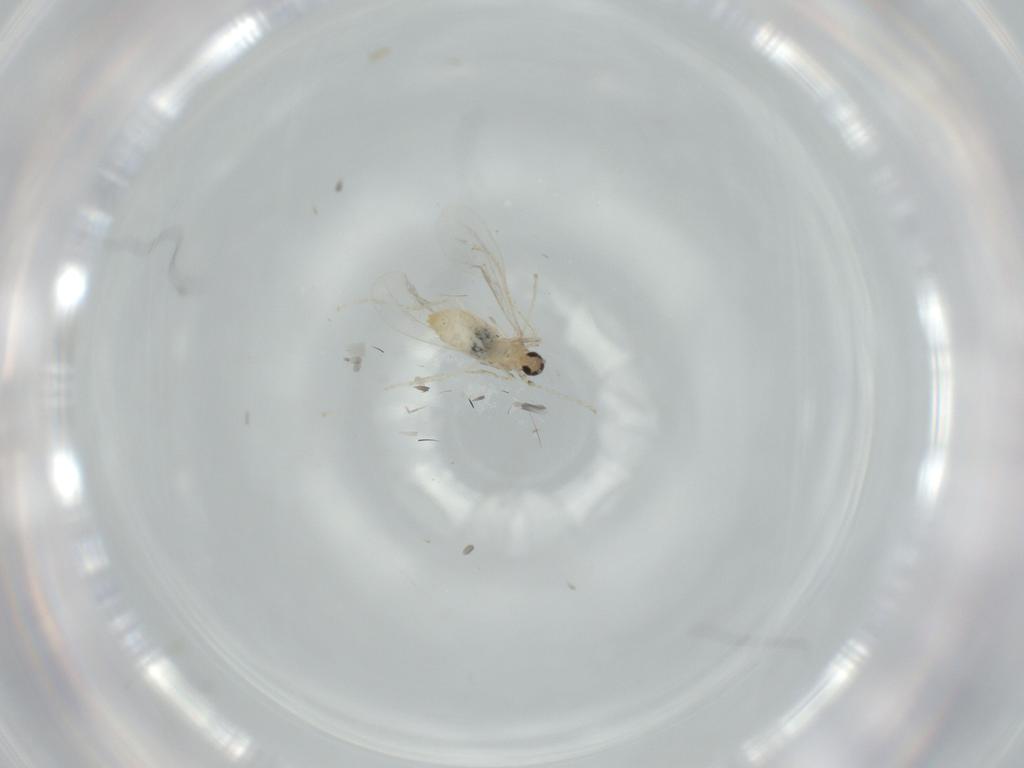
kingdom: Animalia
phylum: Arthropoda
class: Insecta
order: Diptera
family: Cecidomyiidae
